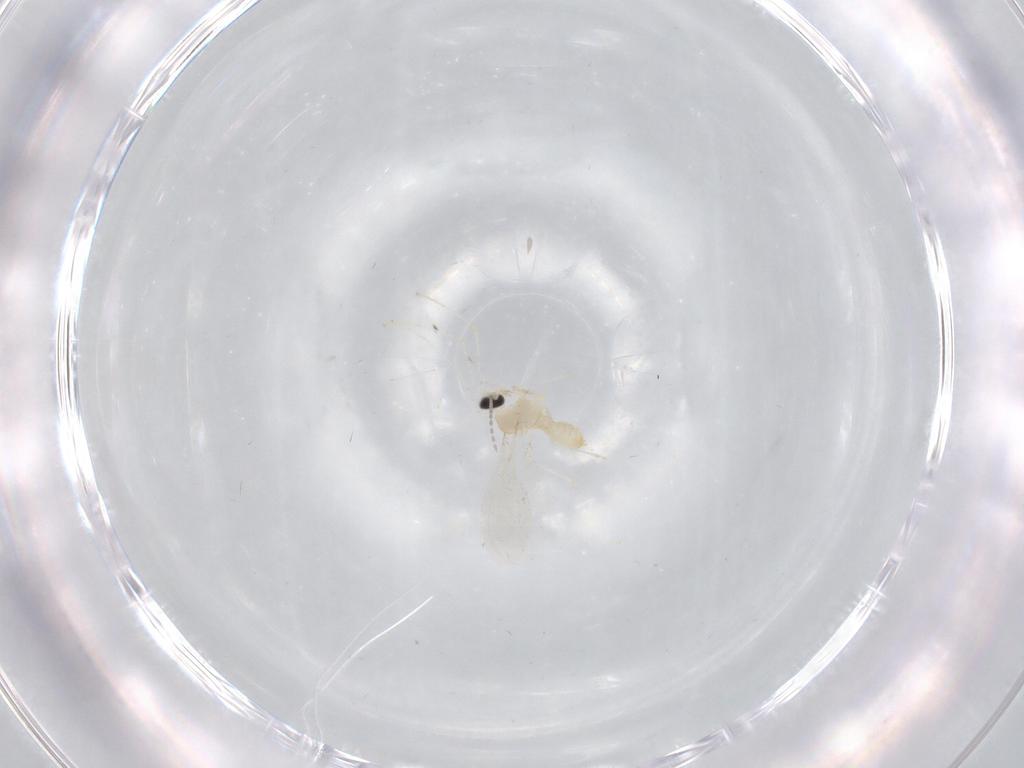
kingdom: Animalia
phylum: Arthropoda
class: Insecta
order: Diptera
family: Sciaridae
